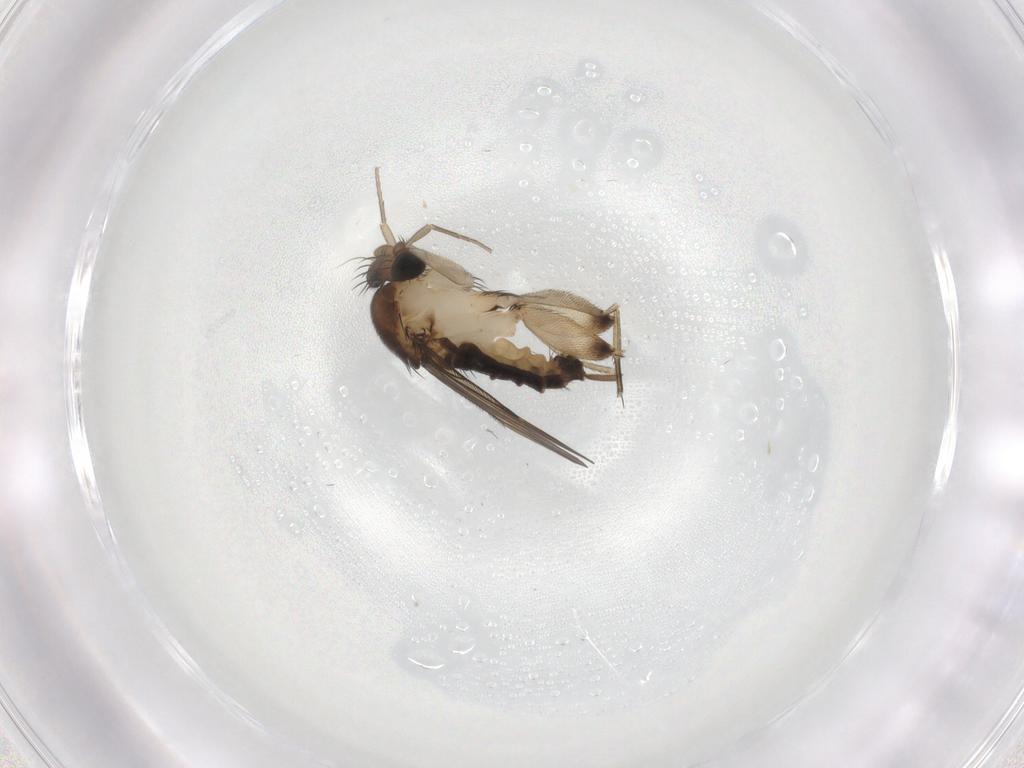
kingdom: Animalia
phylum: Arthropoda
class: Insecta
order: Diptera
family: Phoridae
